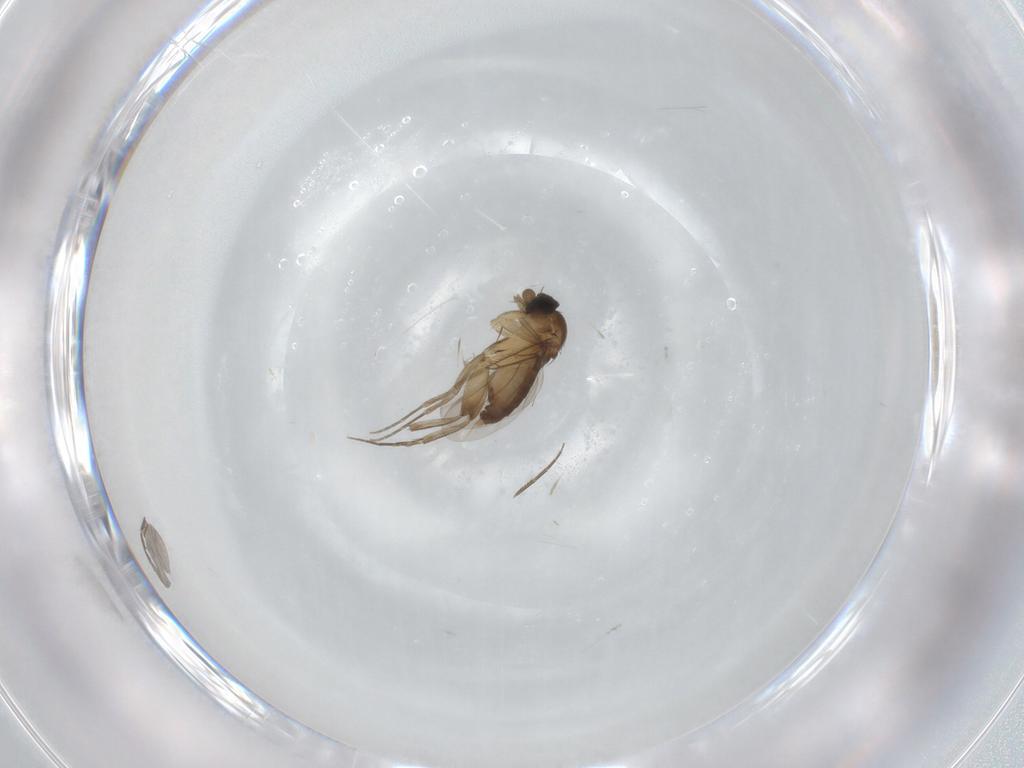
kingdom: Animalia
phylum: Arthropoda
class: Insecta
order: Diptera
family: Phoridae
